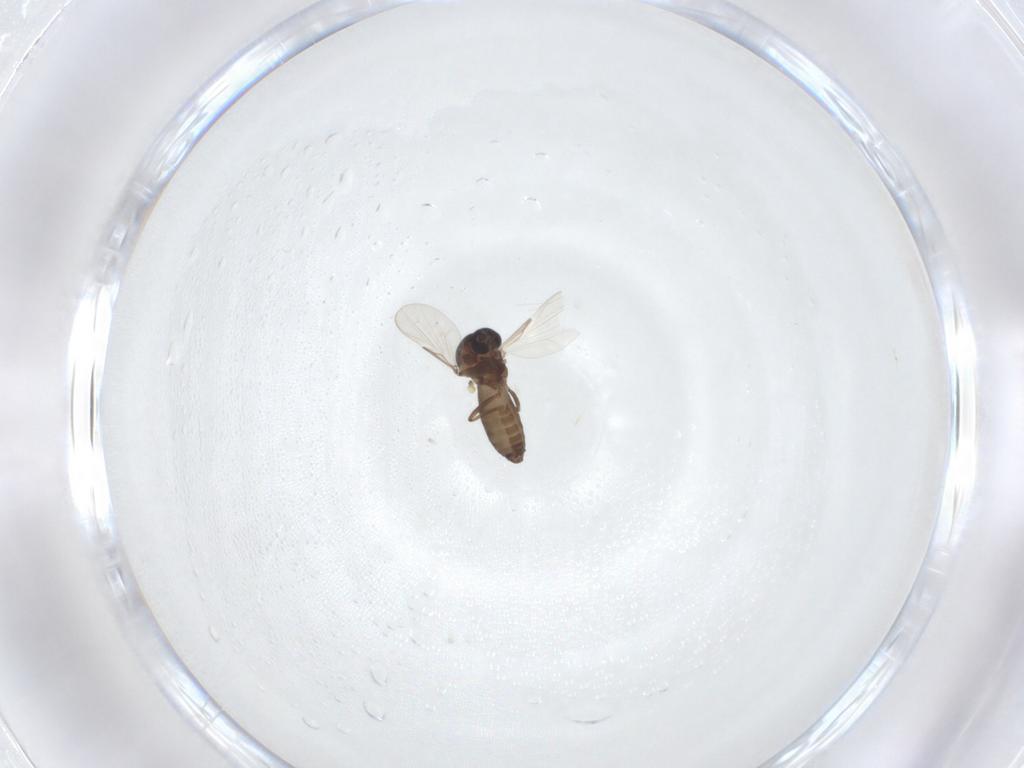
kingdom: Animalia
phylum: Arthropoda
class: Insecta
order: Diptera
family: Ceratopogonidae
